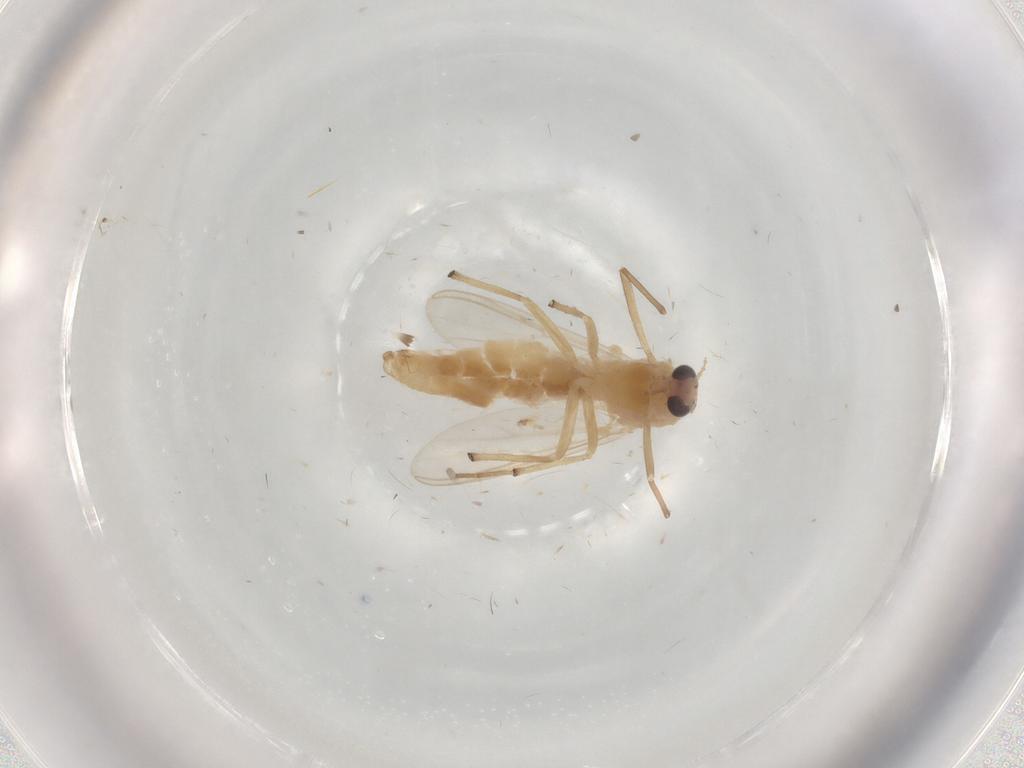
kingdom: Animalia
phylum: Arthropoda
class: Insecta
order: Diptera
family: Chironomidae
